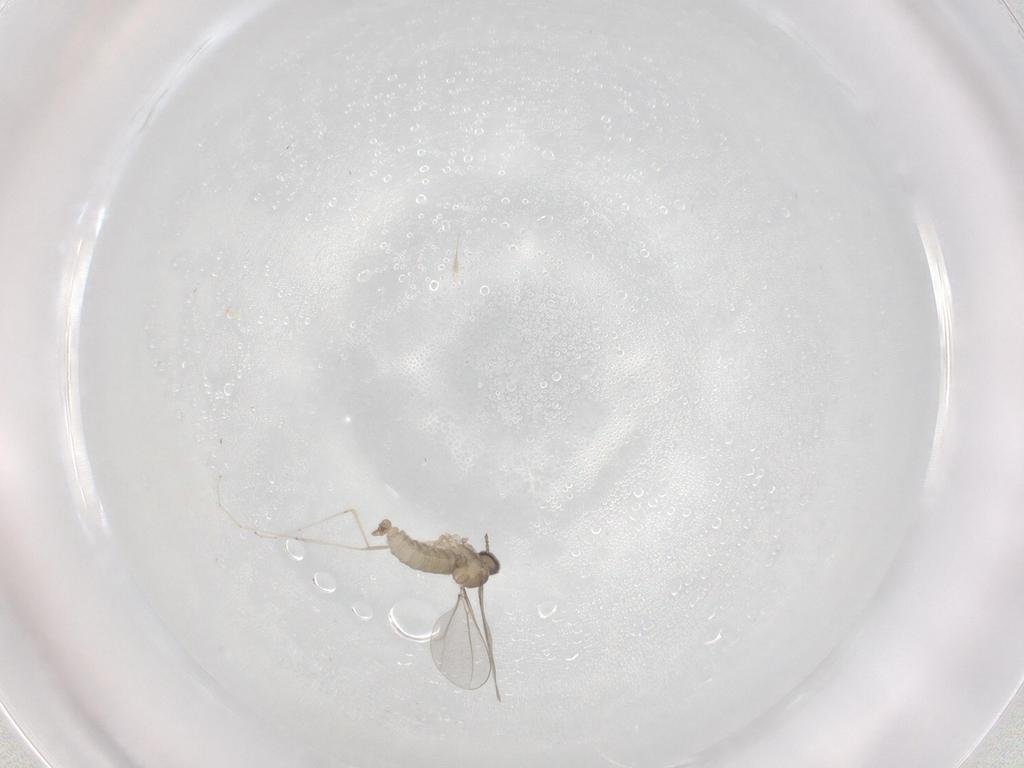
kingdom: Animalia
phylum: Arthropoda
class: Insecta
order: Diptera
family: Cecidomyiidae
